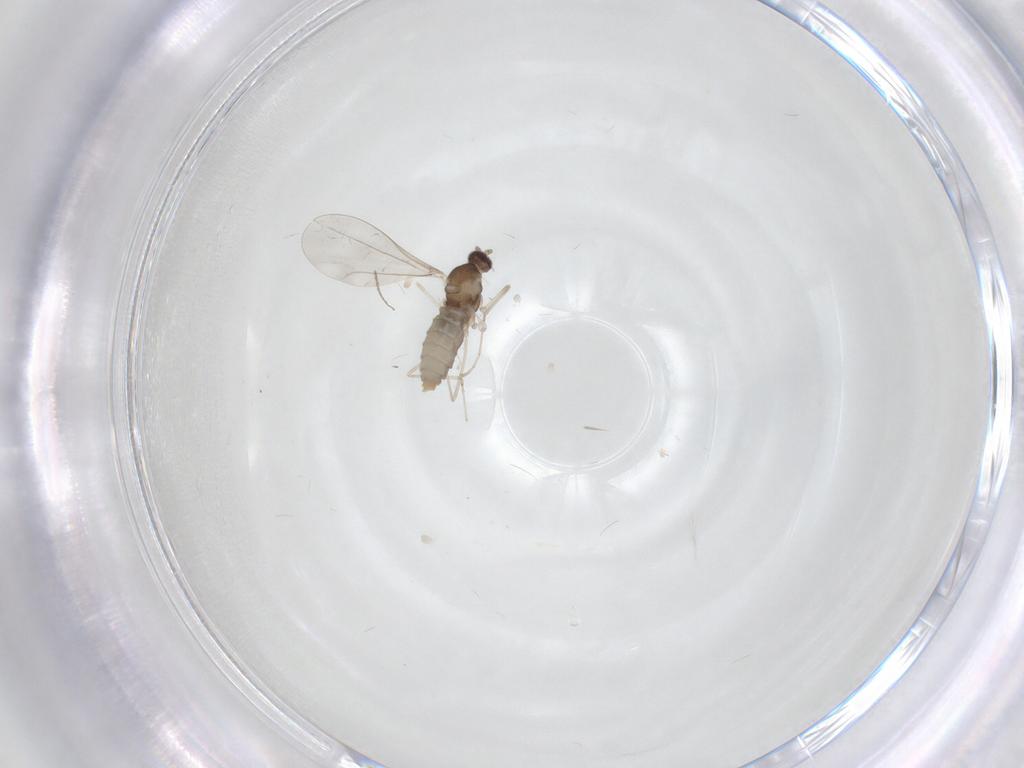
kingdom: Animalia
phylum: Arthropoda
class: Insecta
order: Diptera
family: Cecidomyiidae
